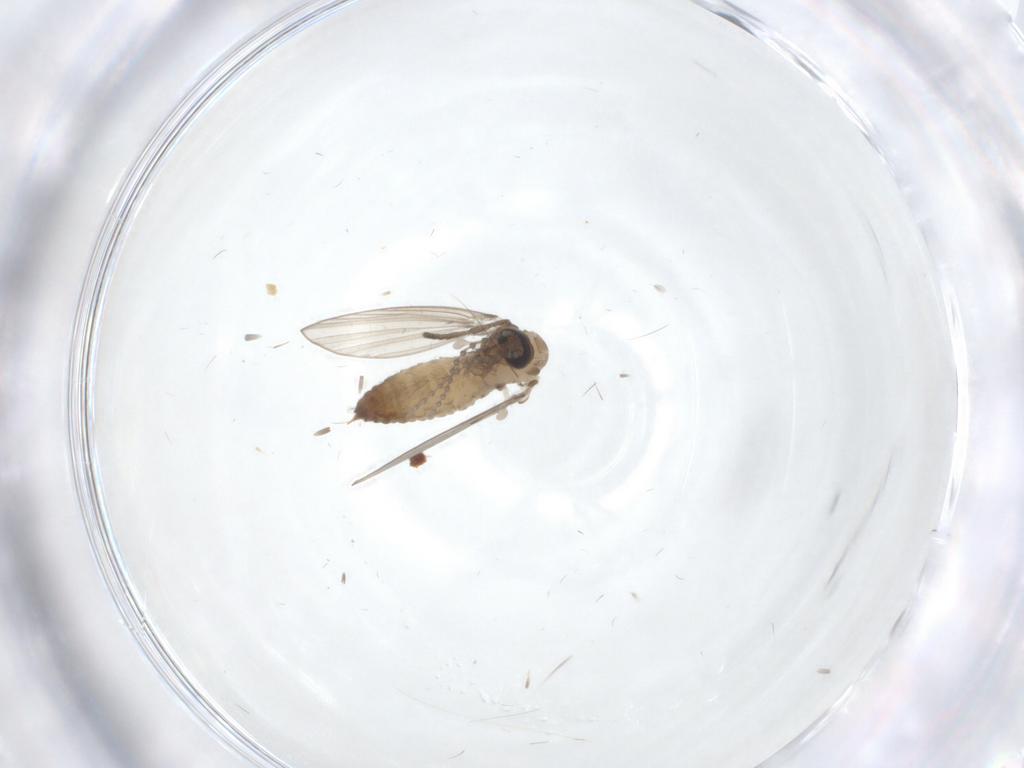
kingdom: Animalia
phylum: Arthropoda
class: Insecta
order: Diptera
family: Psychodidae
